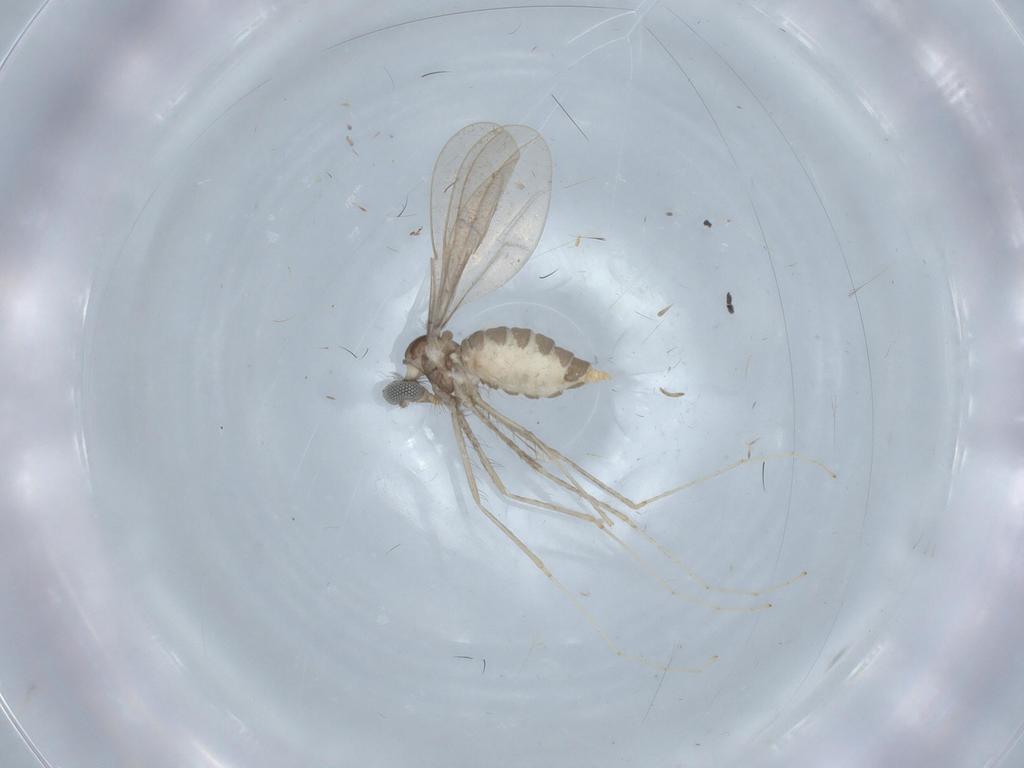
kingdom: Animalia
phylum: Arthropoda
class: Insecta
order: Diptera
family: Cecidomyiidae
